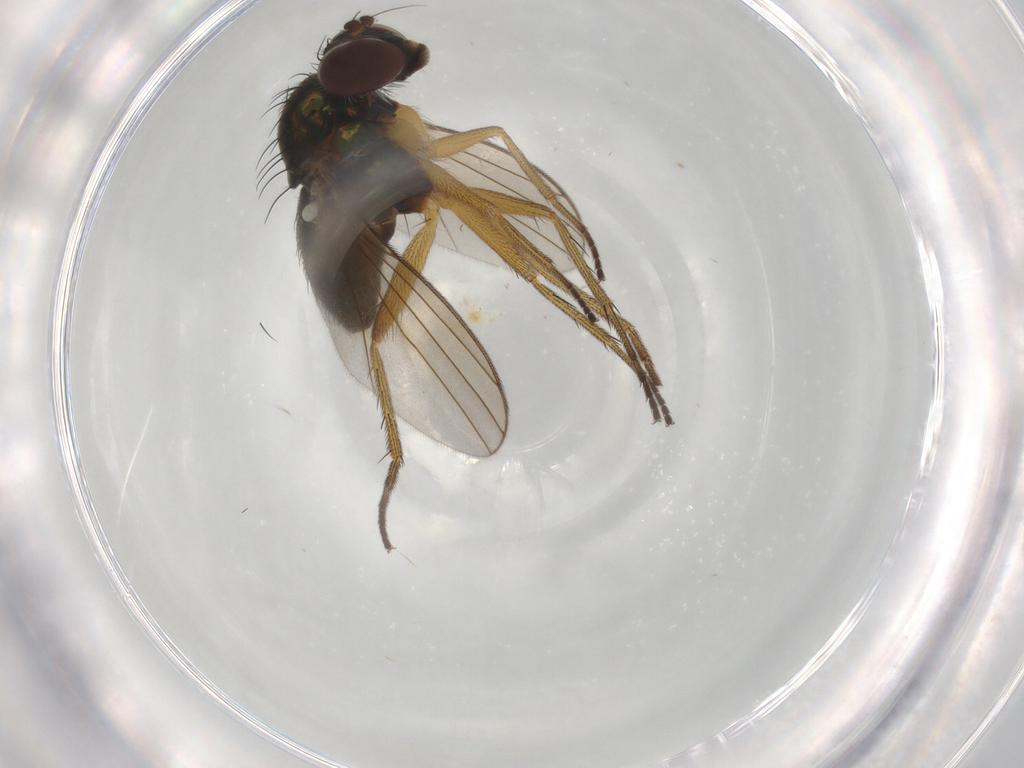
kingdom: Animalia
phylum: Arthropoda
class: Insecta
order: Diptera
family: Dolichopodidae
